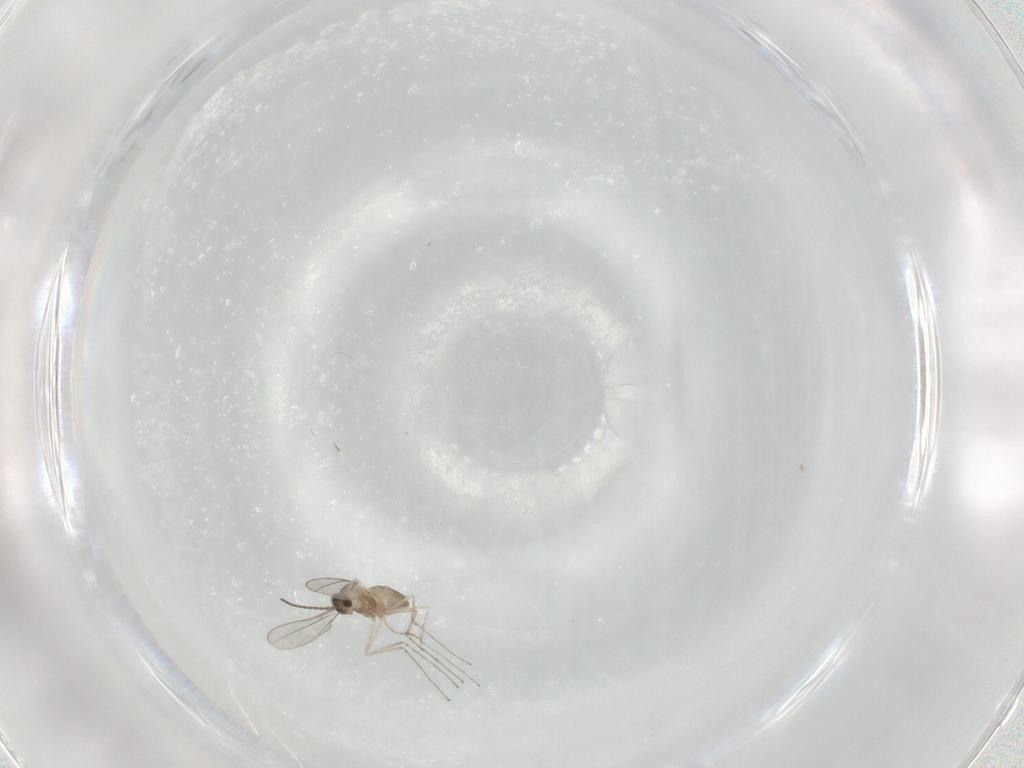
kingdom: Animalia
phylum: Arthropoda
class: Insecta
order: Diptera
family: Cecidomyiidae
